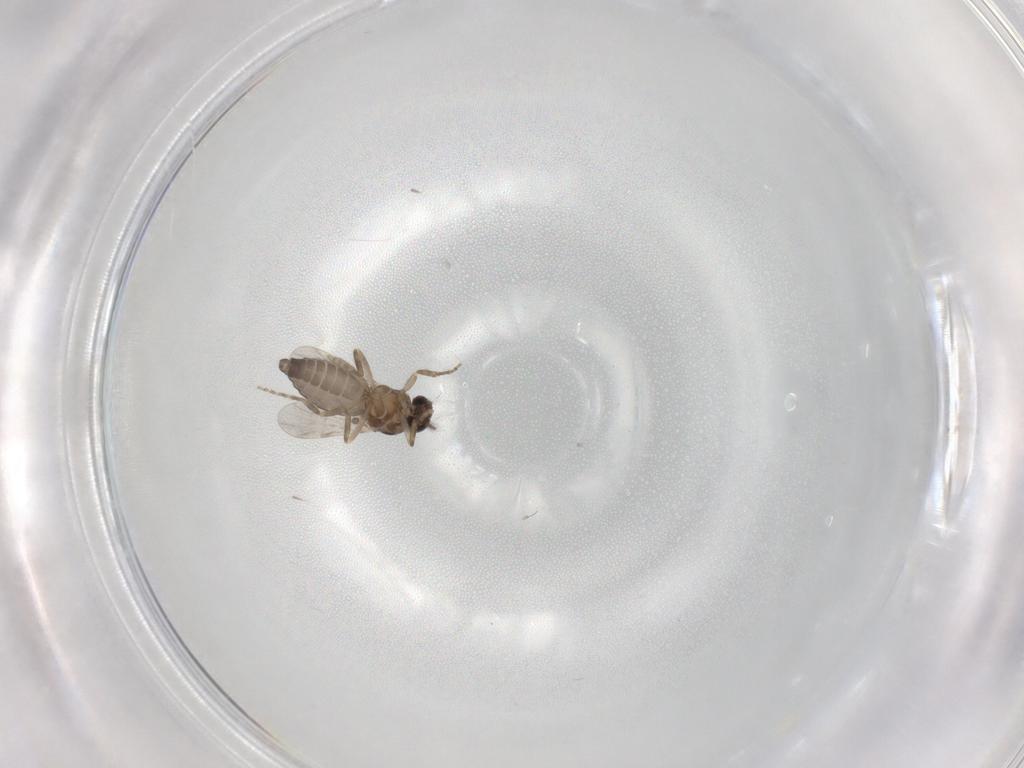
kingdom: Animalia
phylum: Arthropoda
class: Insecta
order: Diptera
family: Ceratopogonidae
